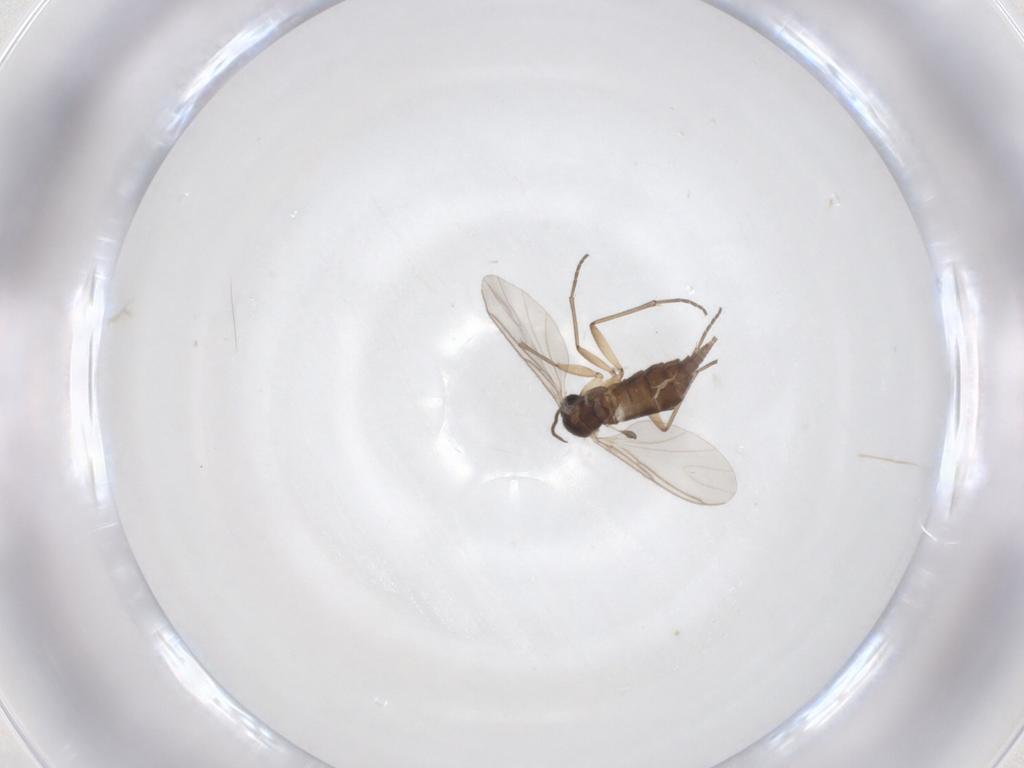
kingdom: Animalia
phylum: Arthropoda
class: Insecta
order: Diptera
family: Sciaridae
